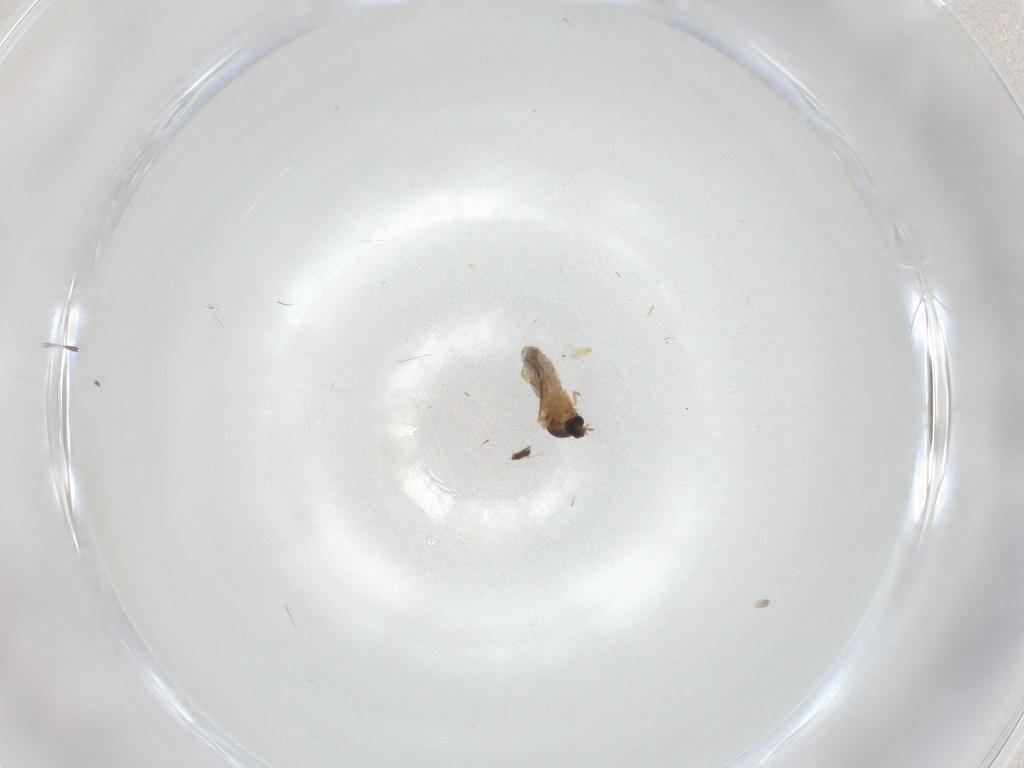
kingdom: Animalia
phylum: Arthropoda
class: Insecta
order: Diptera
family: Ceratopogonidae
